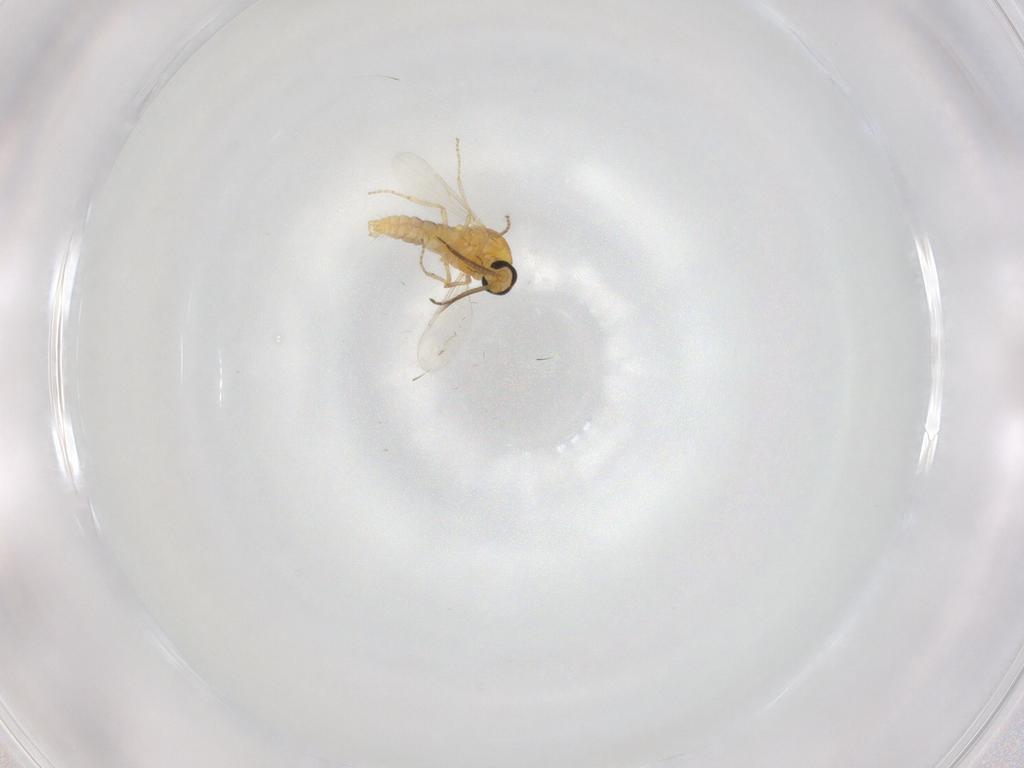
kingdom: Animalia
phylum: Arthropoda
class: Insecta
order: Diptera
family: Ceratopogonidae
